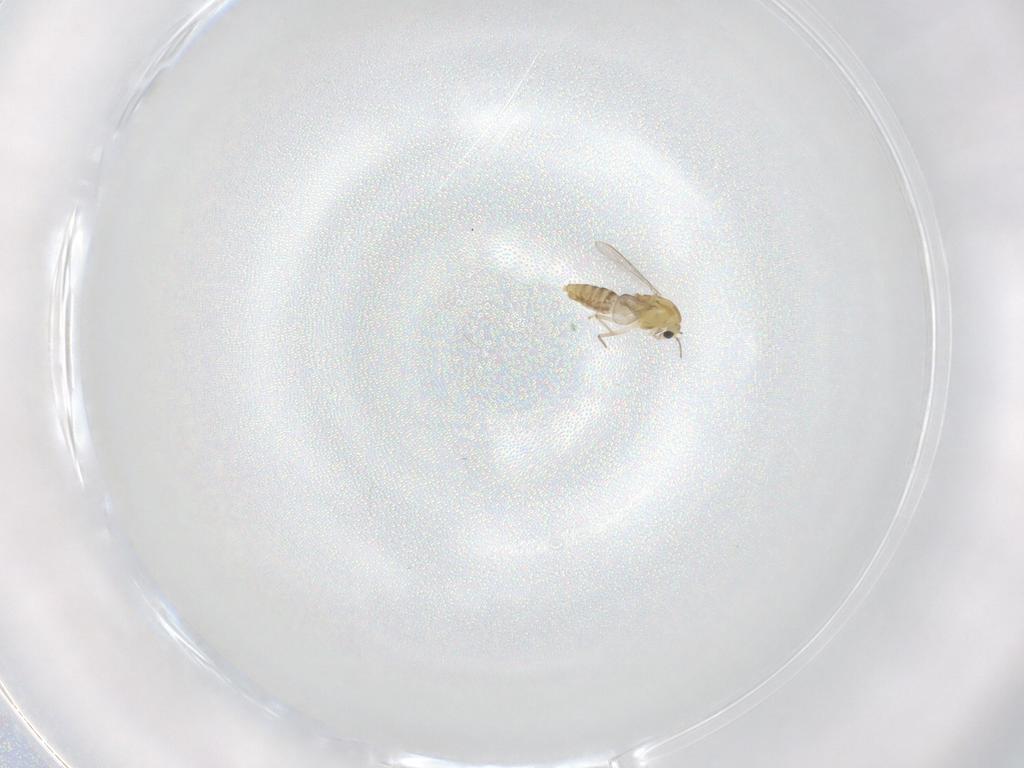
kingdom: Animalia
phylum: Arthropoda
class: Insecta
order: Diptera
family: Chironomidae
